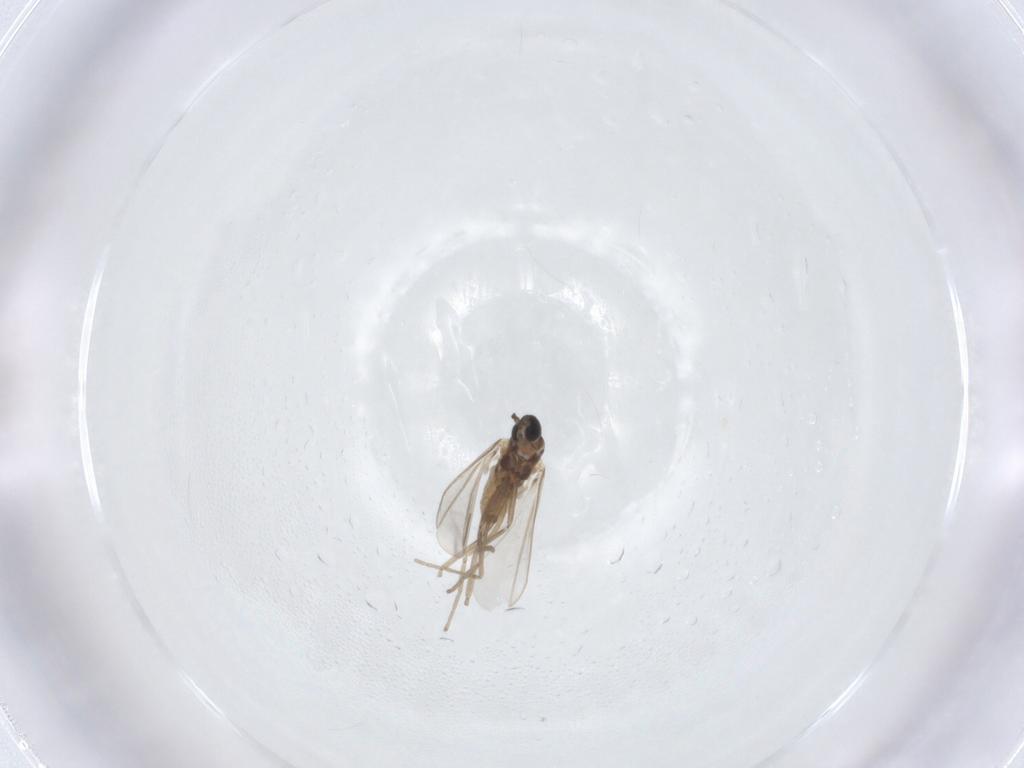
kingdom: Animalia
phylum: Arthropoda
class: Insecta
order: Diptera
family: Cecidomyiidae
